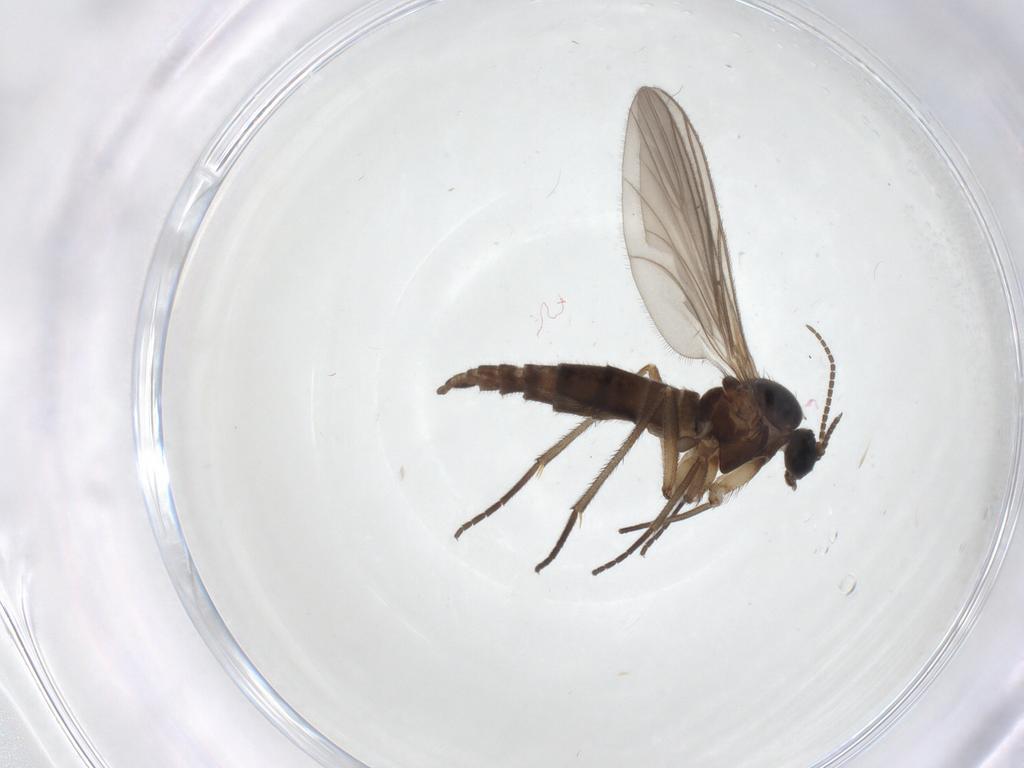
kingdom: Animalia
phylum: Arthropoda
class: Insecta
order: Diptera
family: Sciaridae
